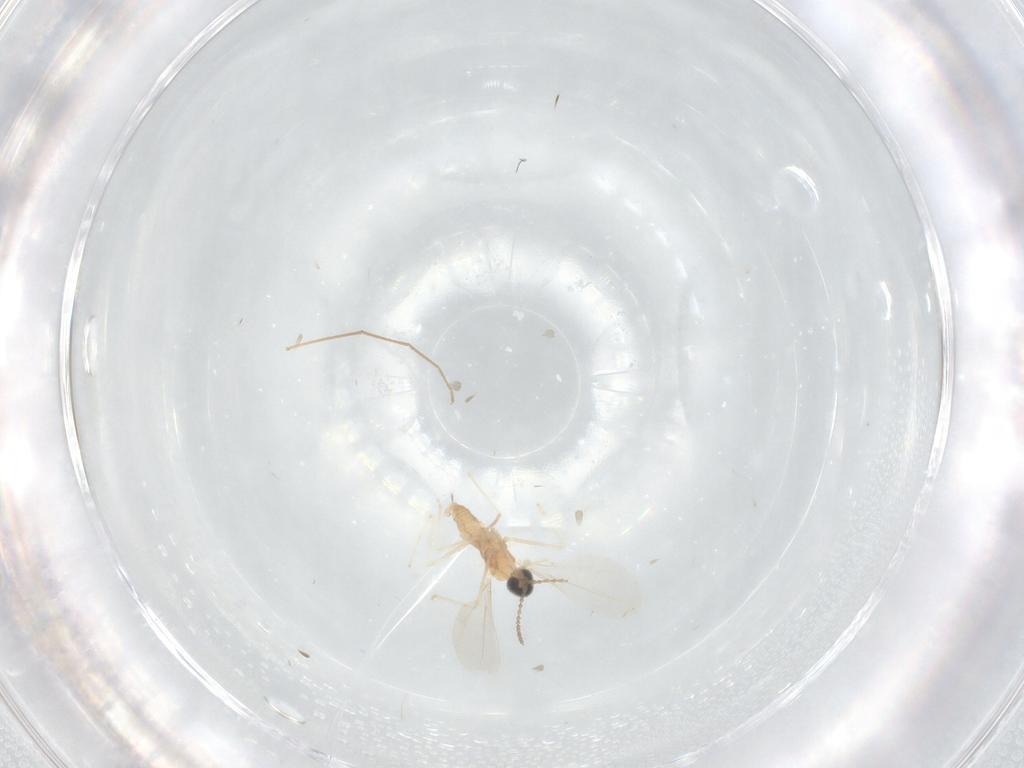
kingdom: Animalia
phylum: Arthropoda
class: Insecta
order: Diptera
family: Cecidomyiidae
